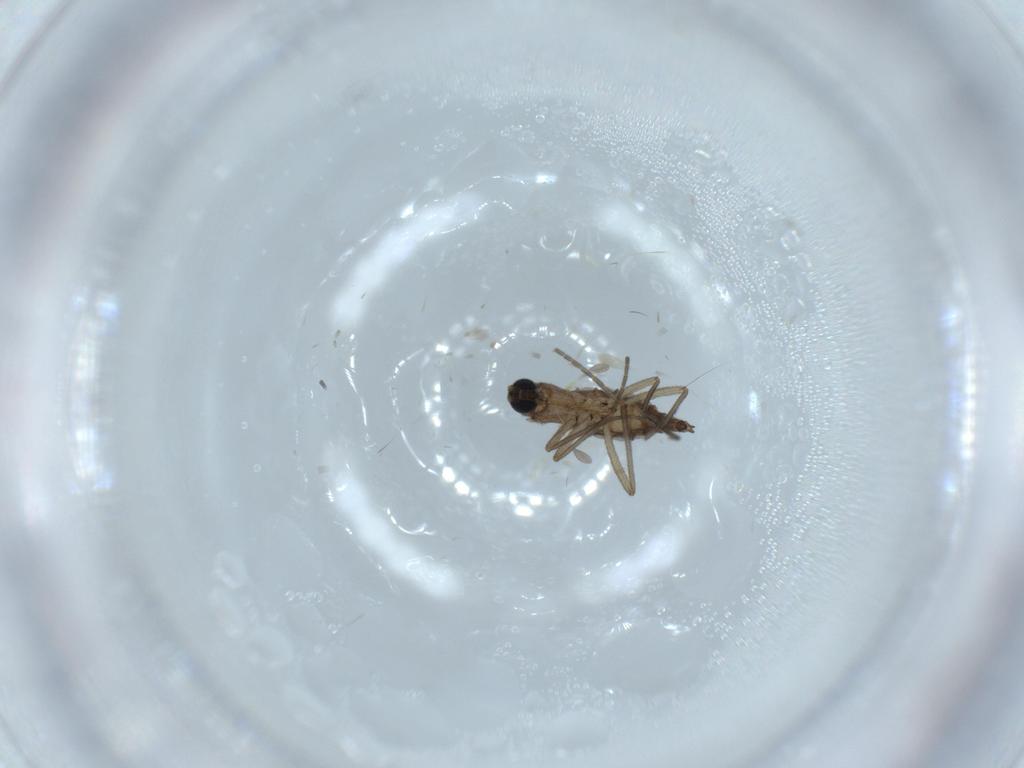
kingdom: Animalia
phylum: Arthropoda
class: Insecta
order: Diptera
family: Sciaridae
